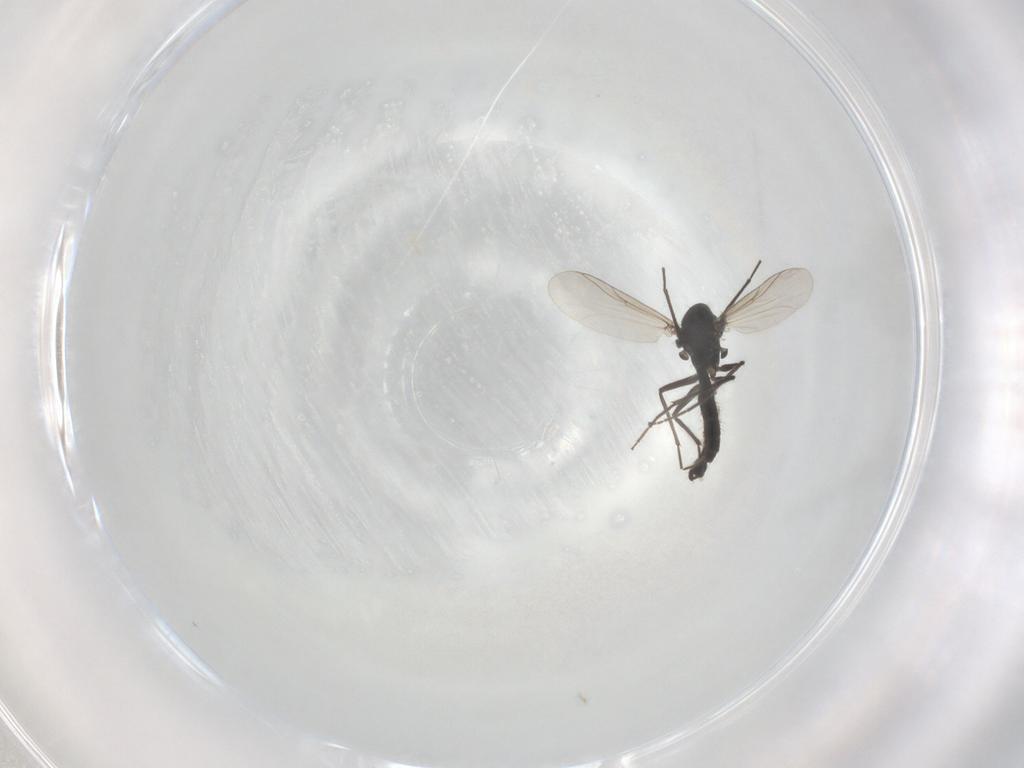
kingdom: Animalia
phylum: Arthropoda
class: Insecta
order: Diptera
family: Chironomidae
